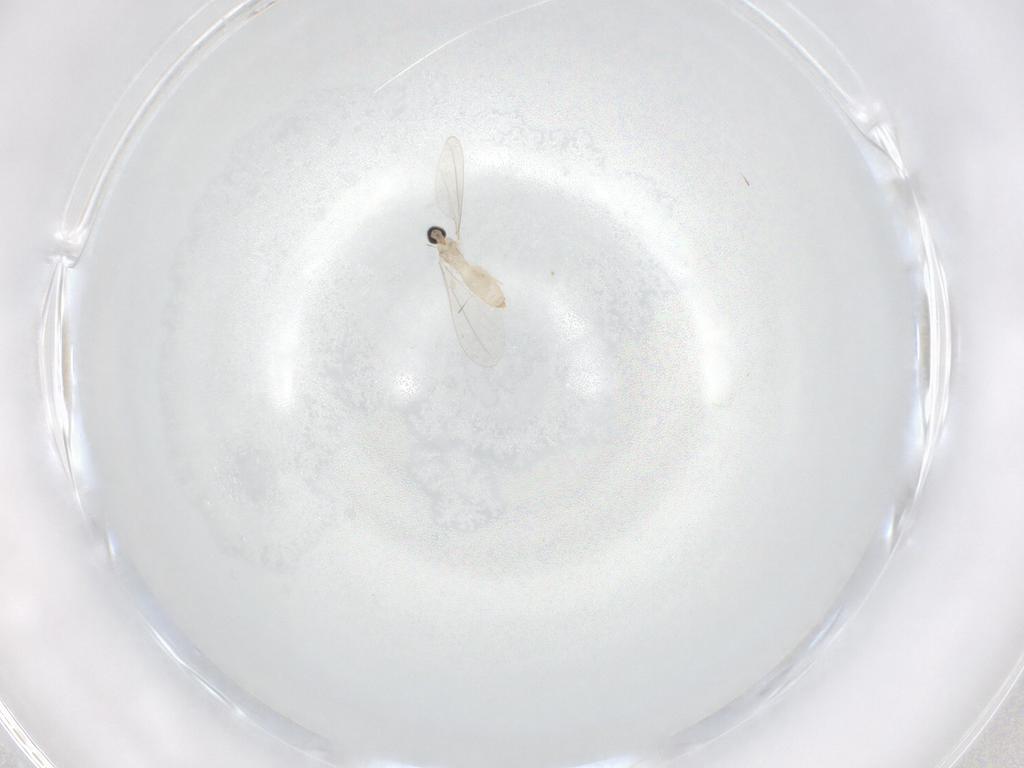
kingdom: Animalia
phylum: Arthropoda
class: Insecta
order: Diptera
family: Cecidomyiidae
